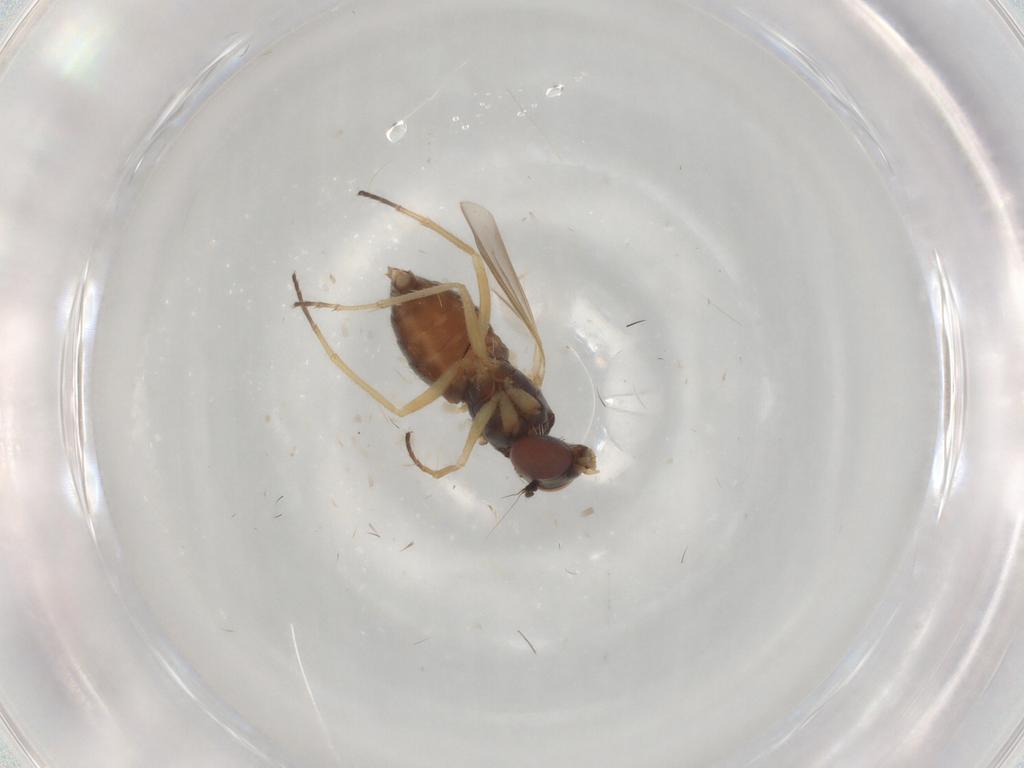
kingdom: Animalia
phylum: Arthropoda
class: Insecta
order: Diptera
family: Dolichopodidae
